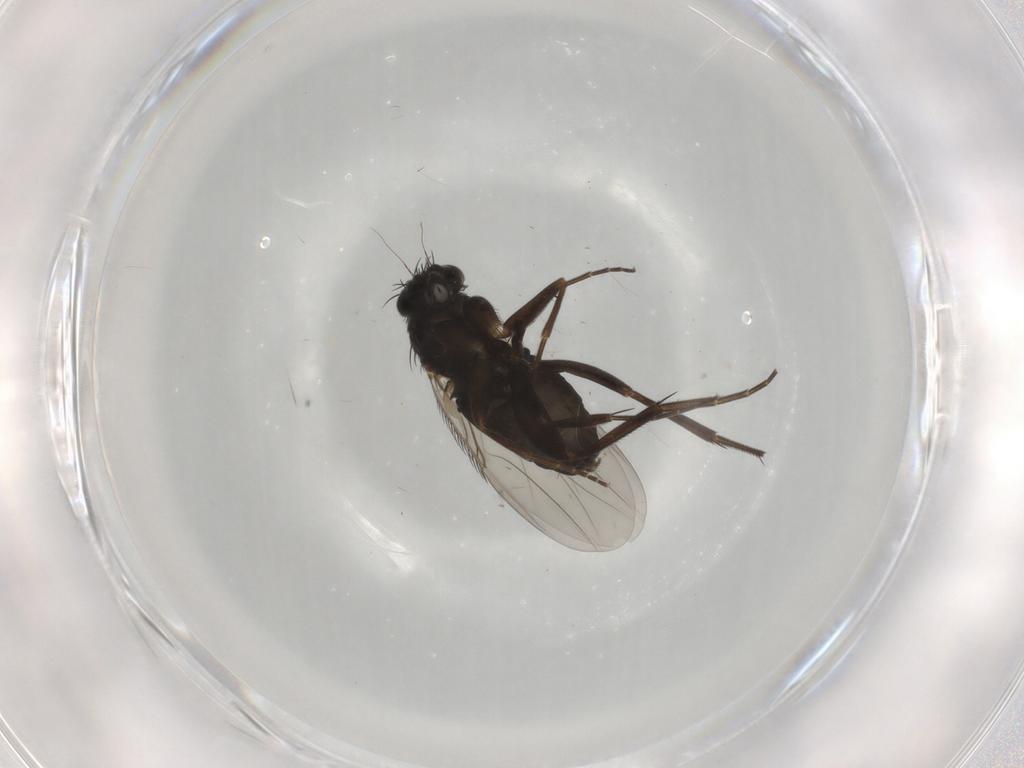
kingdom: Animalia
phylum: Arthropoda
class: Insecta
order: Diptera
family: Phoridae
